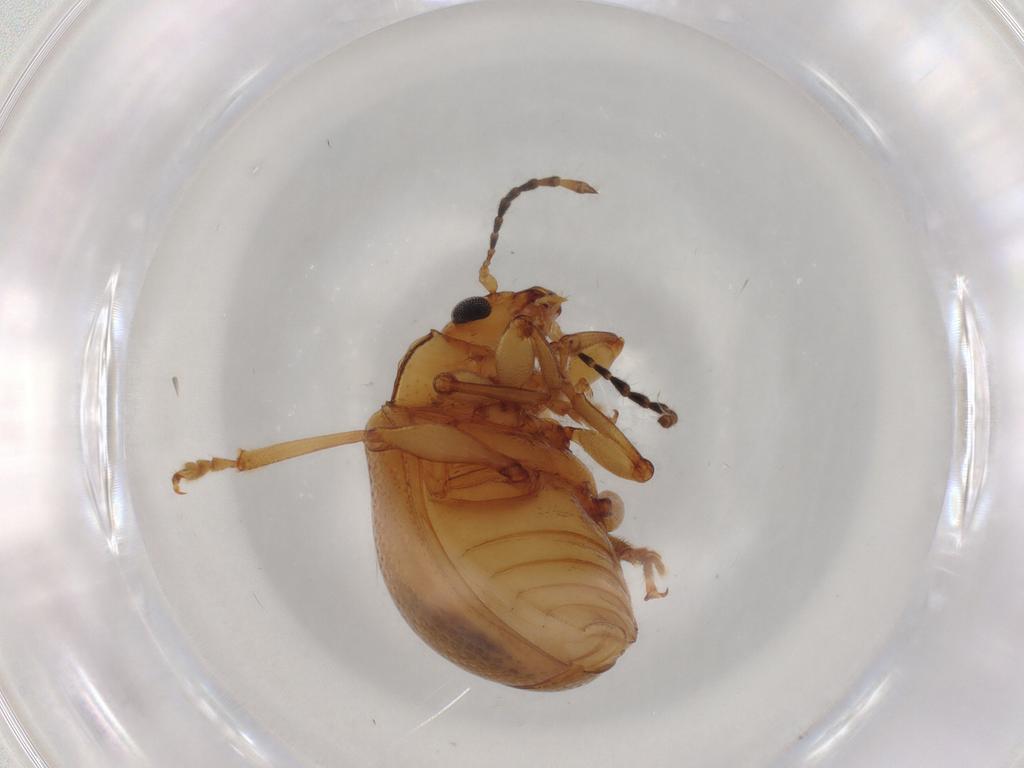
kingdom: Animalia
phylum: Arthropoda
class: Insecta
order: Coleoptera
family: Chrysomelidae
